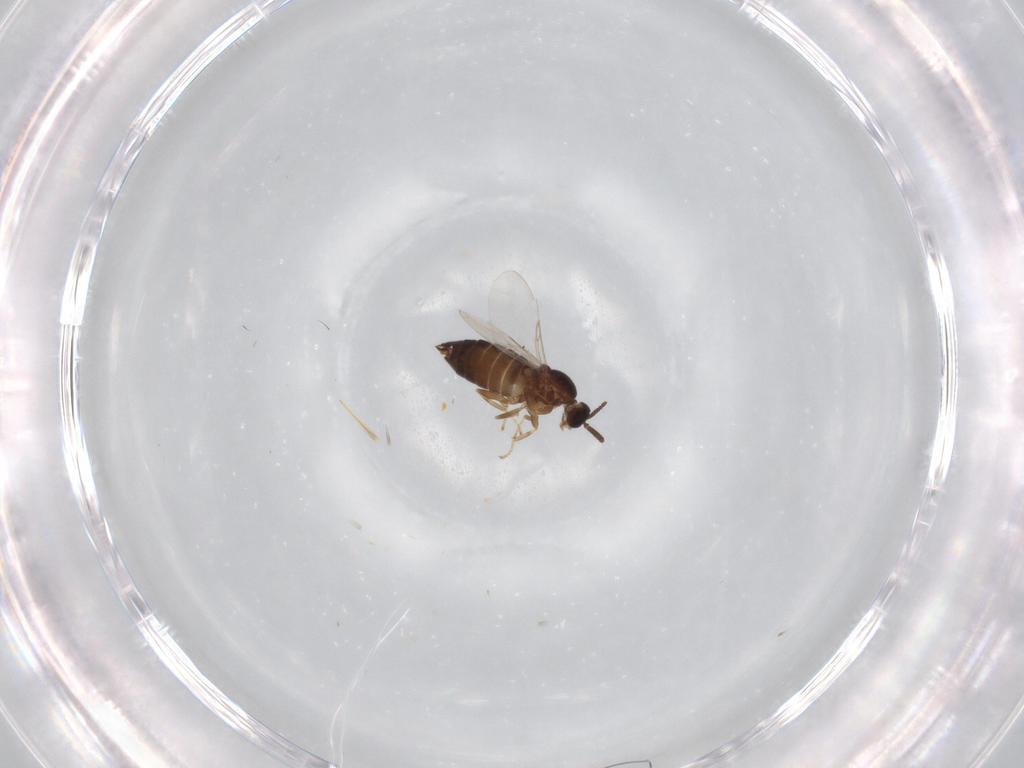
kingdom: Animalia
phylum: Arthropoda
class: Insecta
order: Diptera
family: Scatopsidae
